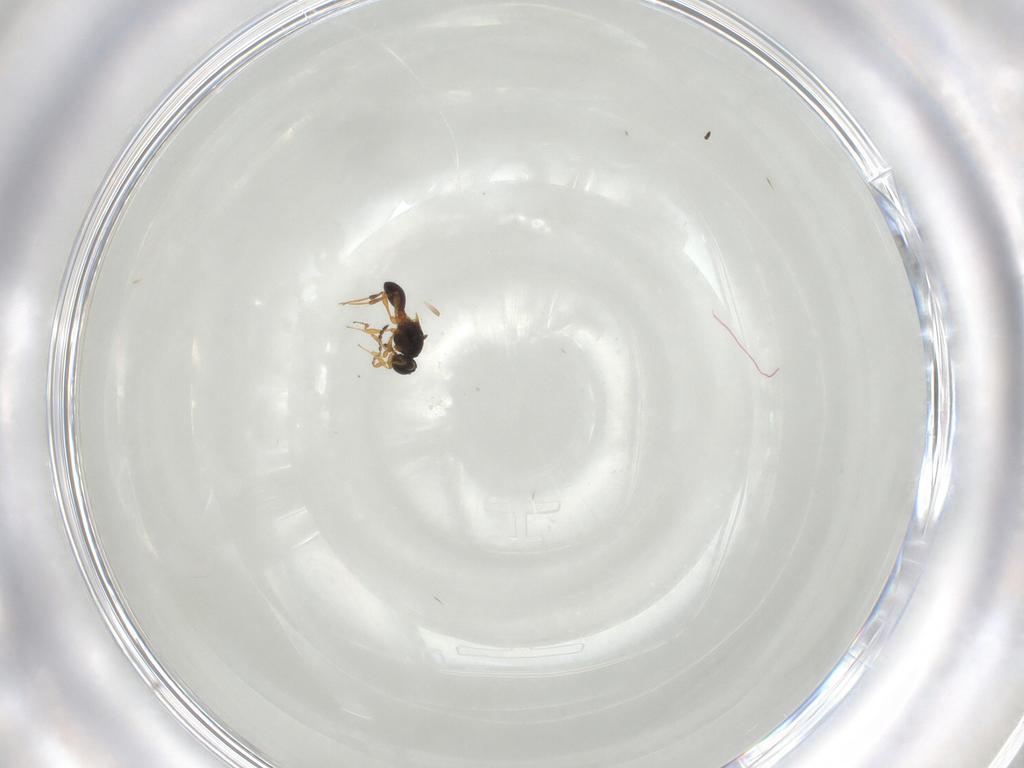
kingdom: Animalia
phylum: Arthropoda
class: Insecta
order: Hymenoptera
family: Platygastridae
